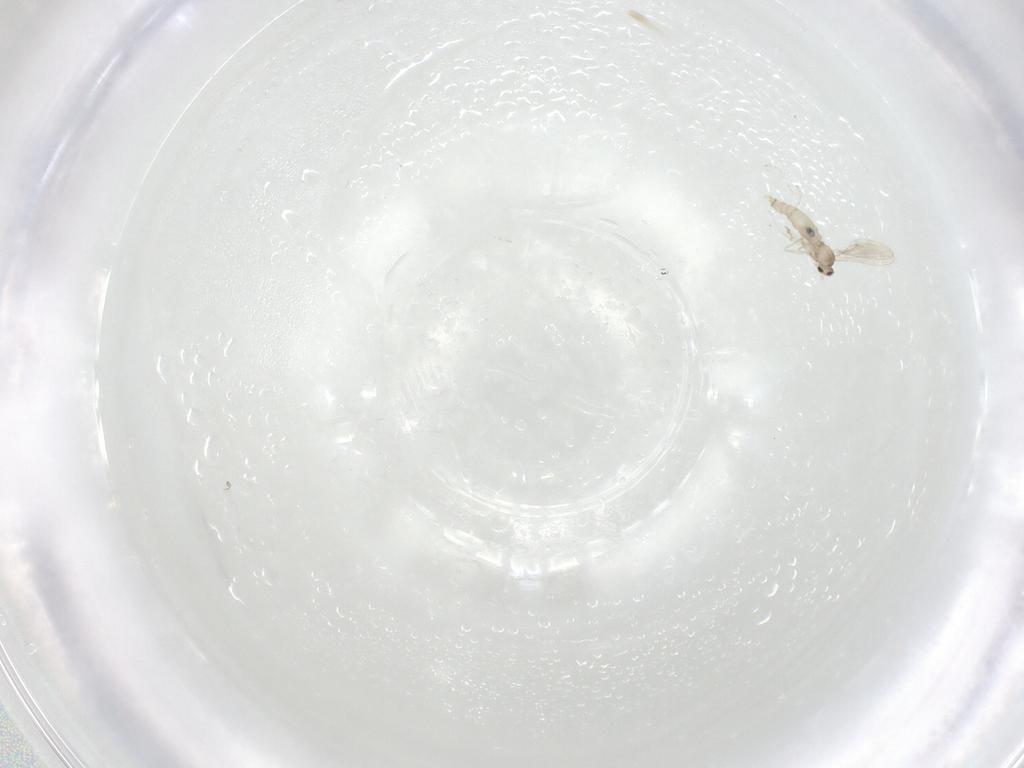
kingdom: Animalia
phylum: Arthropoda
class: Insecta
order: Diptera
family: Cecidomyiidae
